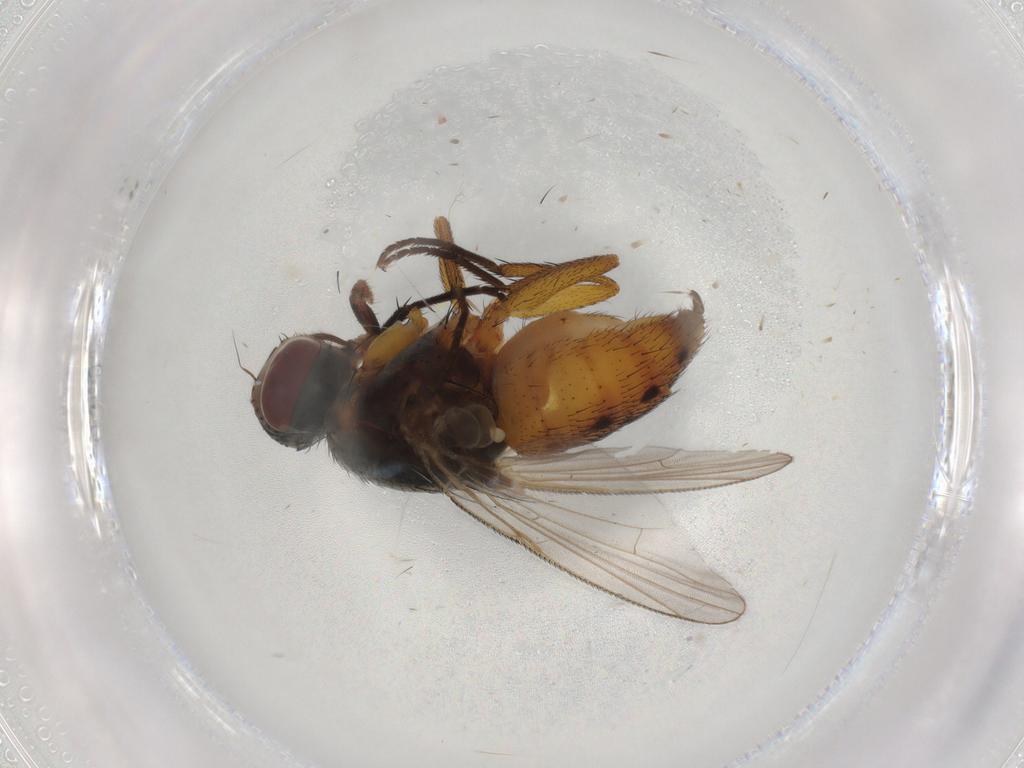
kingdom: Animalia
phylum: Arthropoda
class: Insecta
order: Diptera
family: Muscidae
